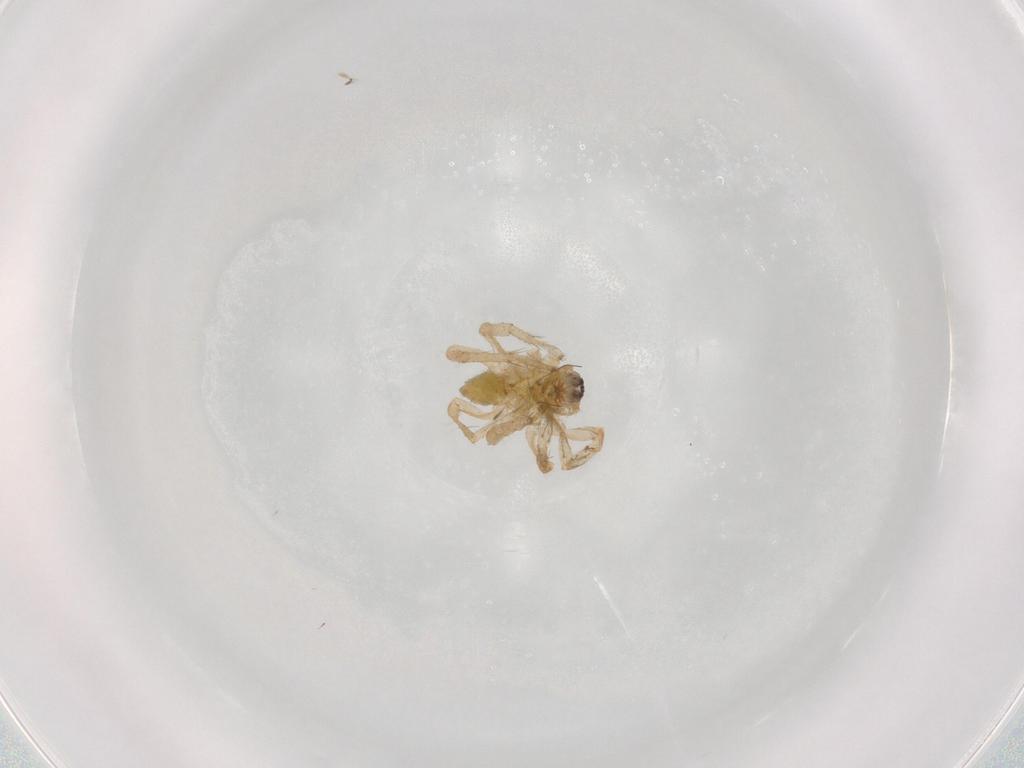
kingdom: Animalia
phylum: Arthropoda
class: Arachnida
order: Araneae
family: Anyphaenidae
